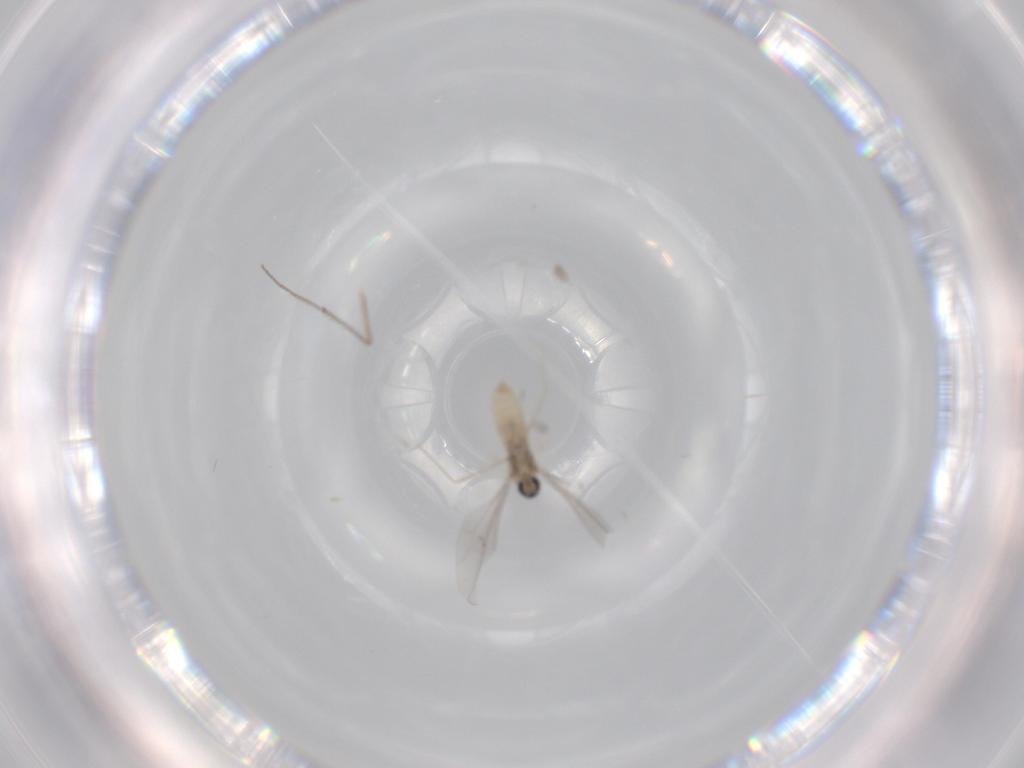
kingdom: Animalia
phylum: Arthropoda
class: Insecta
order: Diptera
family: Chironomidae
